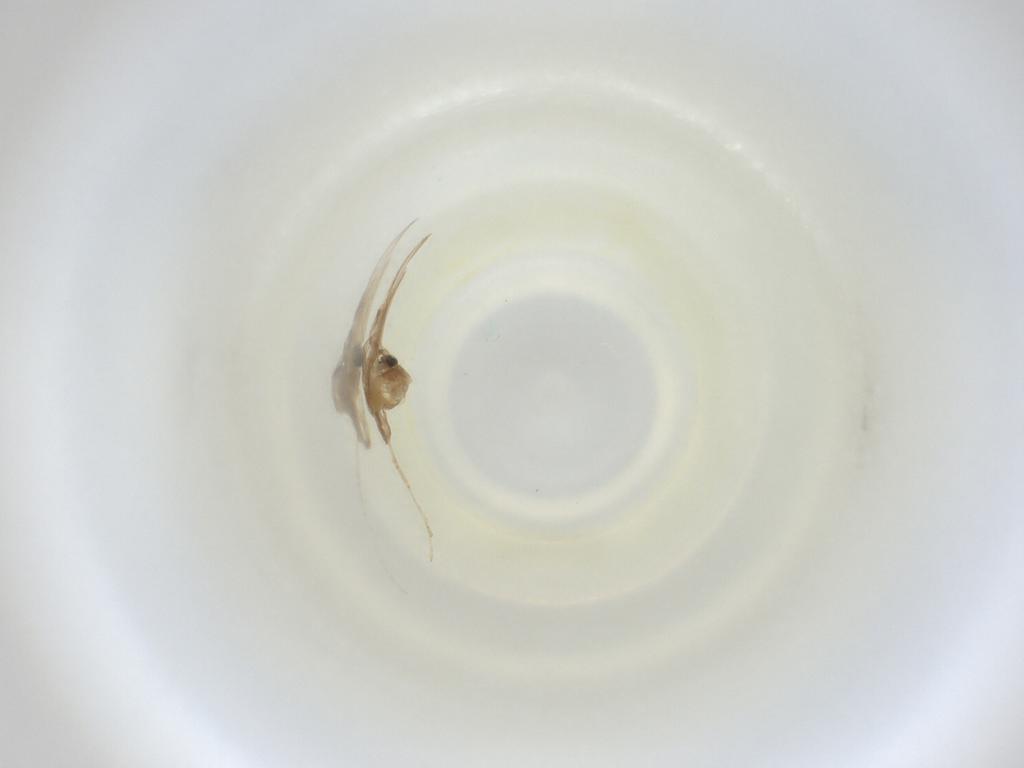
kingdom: Animalia
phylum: Arthropoda
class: Insecta
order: Diptera
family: Cecidomyiidae
